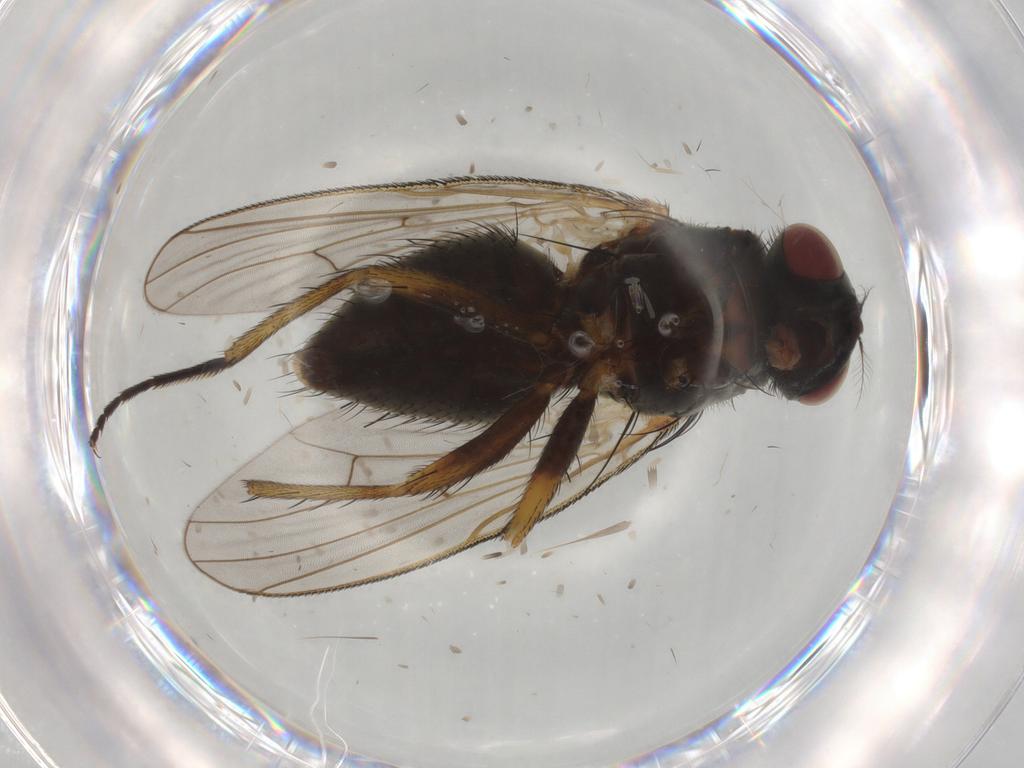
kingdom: Animalia
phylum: Arthropoda
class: Insecta
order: Diptera
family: Muscidae
